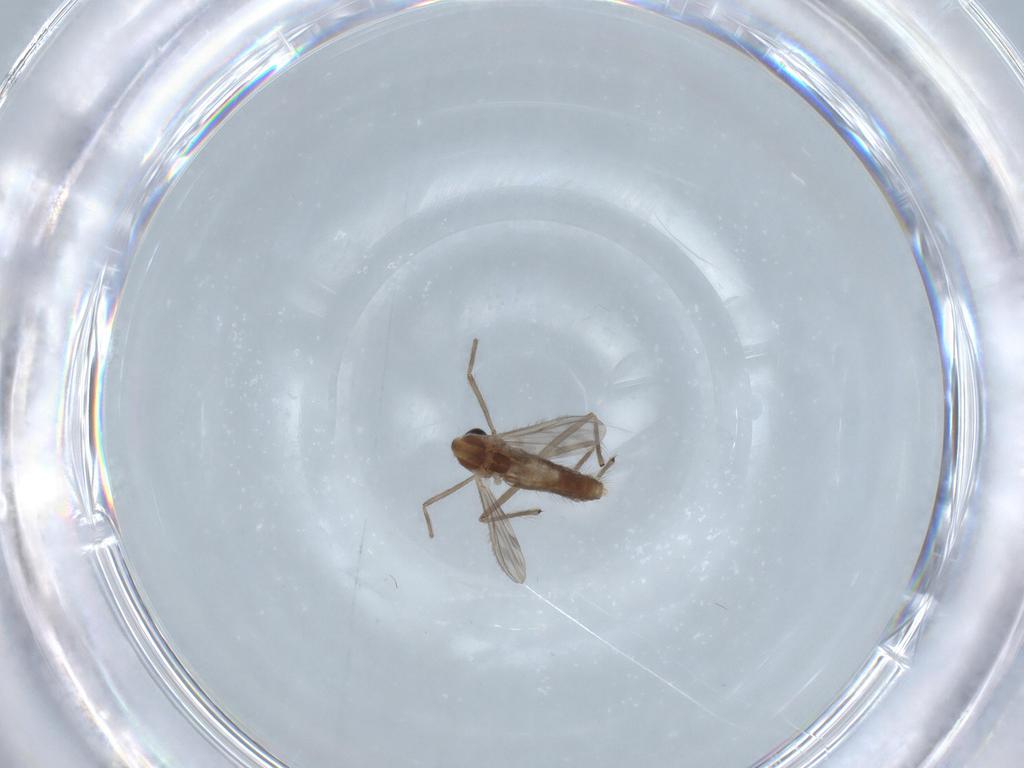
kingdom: Animalia
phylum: Arthropoda
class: Insecta
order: Diptera
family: Chironomidae
